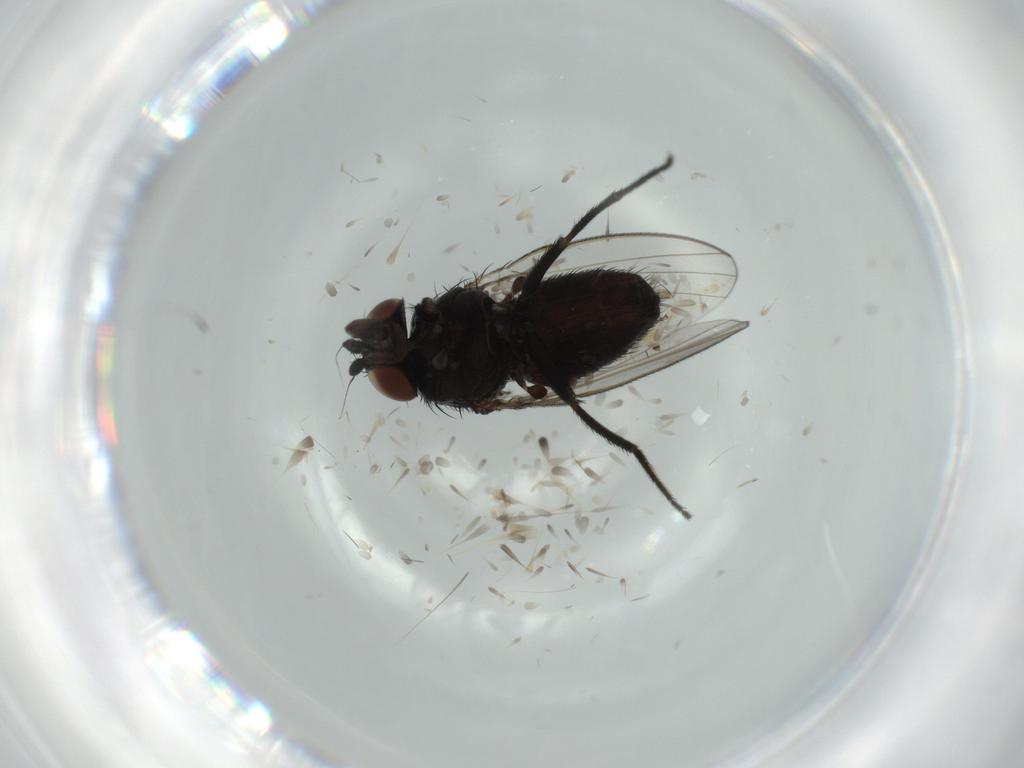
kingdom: Animalia
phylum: Arthropoda
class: Insecta
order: Diptera
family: Milichiidae
